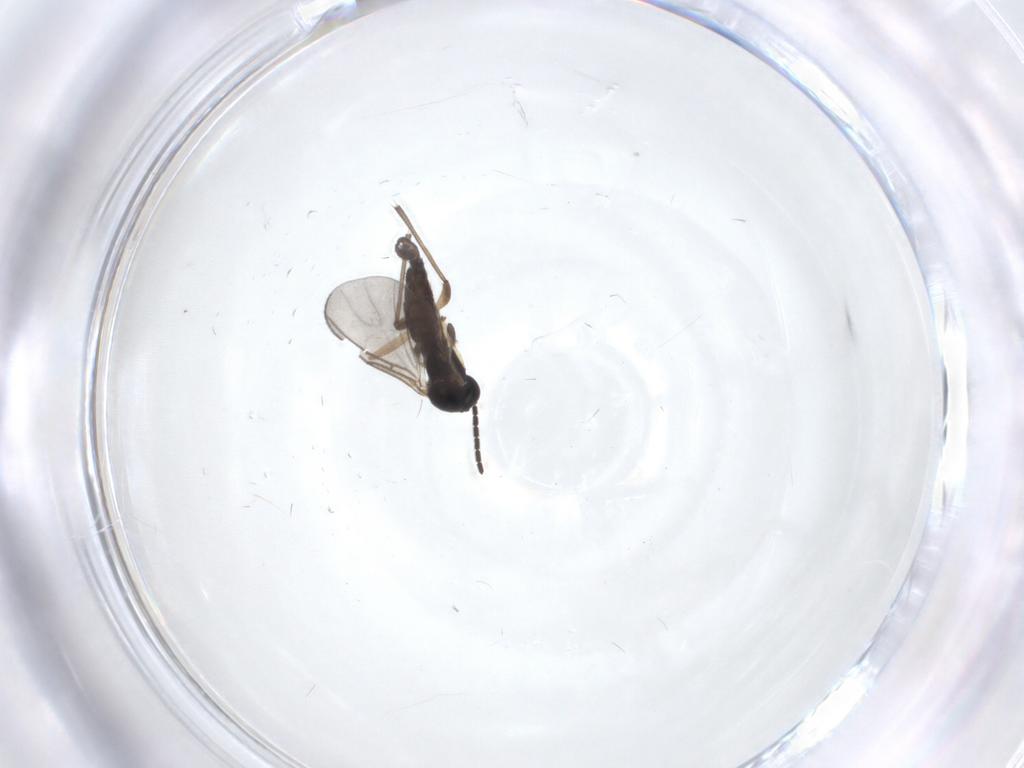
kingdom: Animalia
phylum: Arthropoda
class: Insecta
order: Diptera
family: Sciaridae
